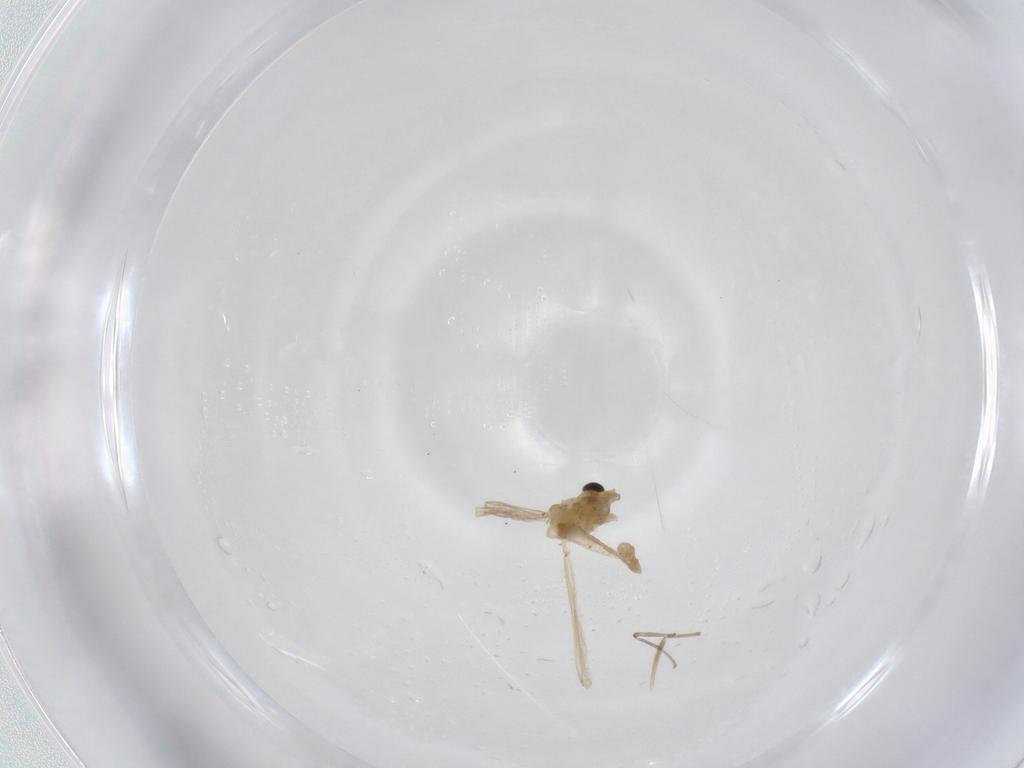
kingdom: Animalia
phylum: Arthropoda
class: Insecta
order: Diptera
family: Chironomidae
